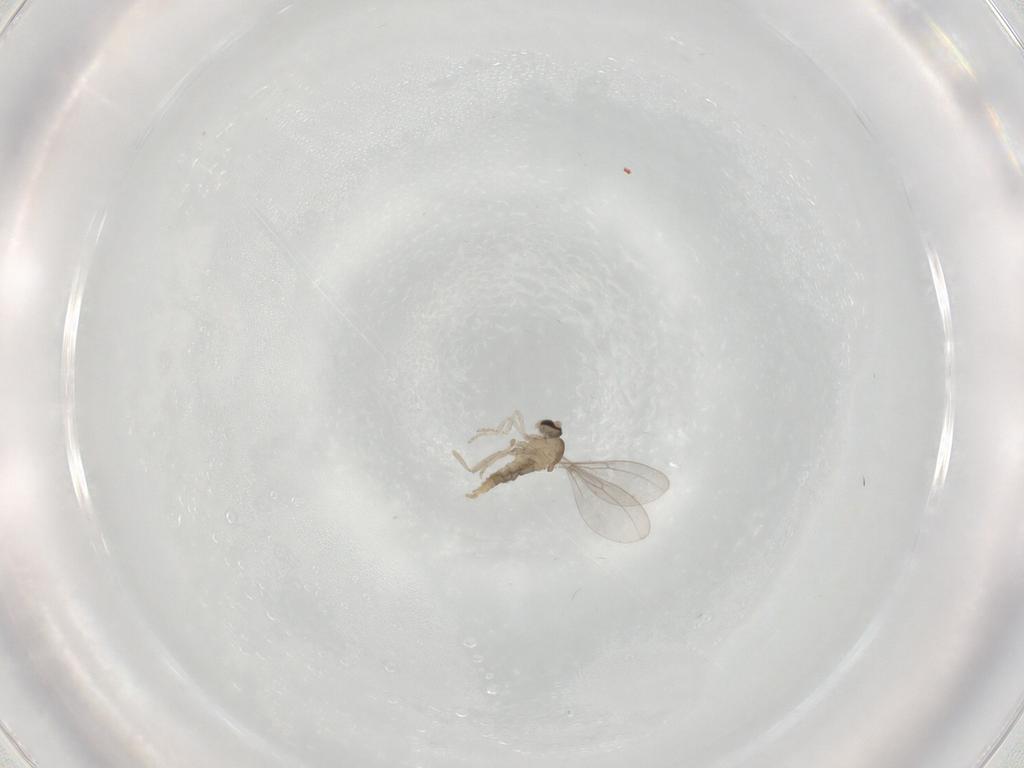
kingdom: Animalia
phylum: Arthropoda
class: Insecta
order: Diptera
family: Cecidomyiidae
